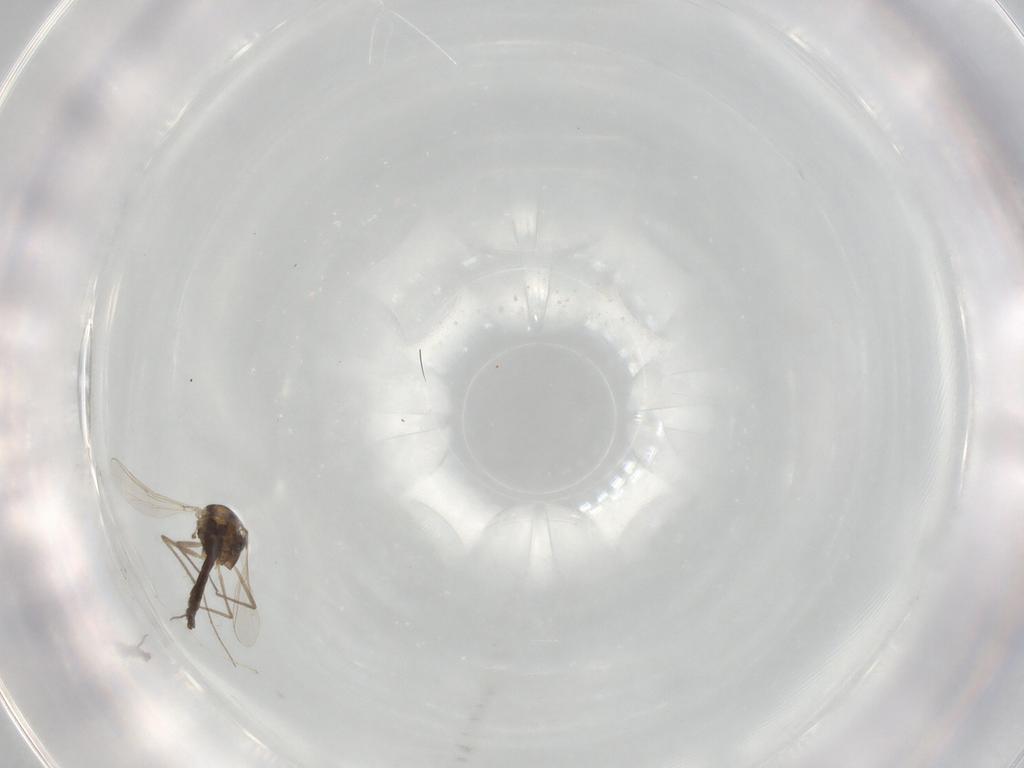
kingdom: Animalia
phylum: Arthropoda
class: Insecta
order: Diptera
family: Chironomidae
